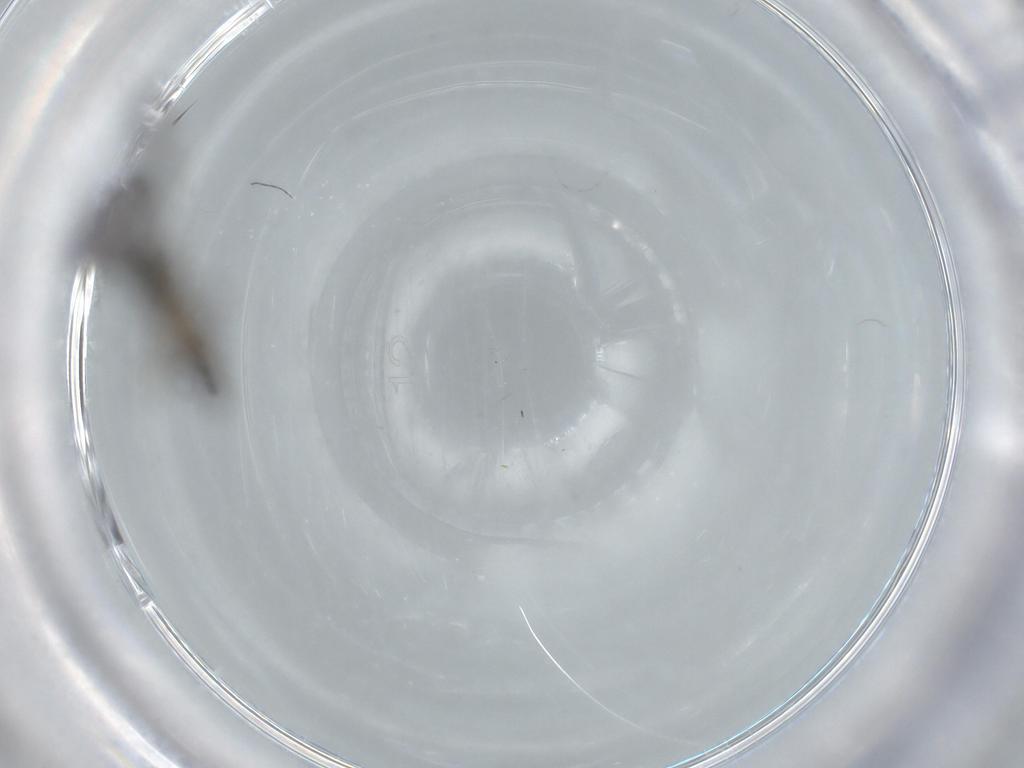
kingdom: Animalia
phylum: Arthropoda
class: Insecta
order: Diptera
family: Sciaridae
